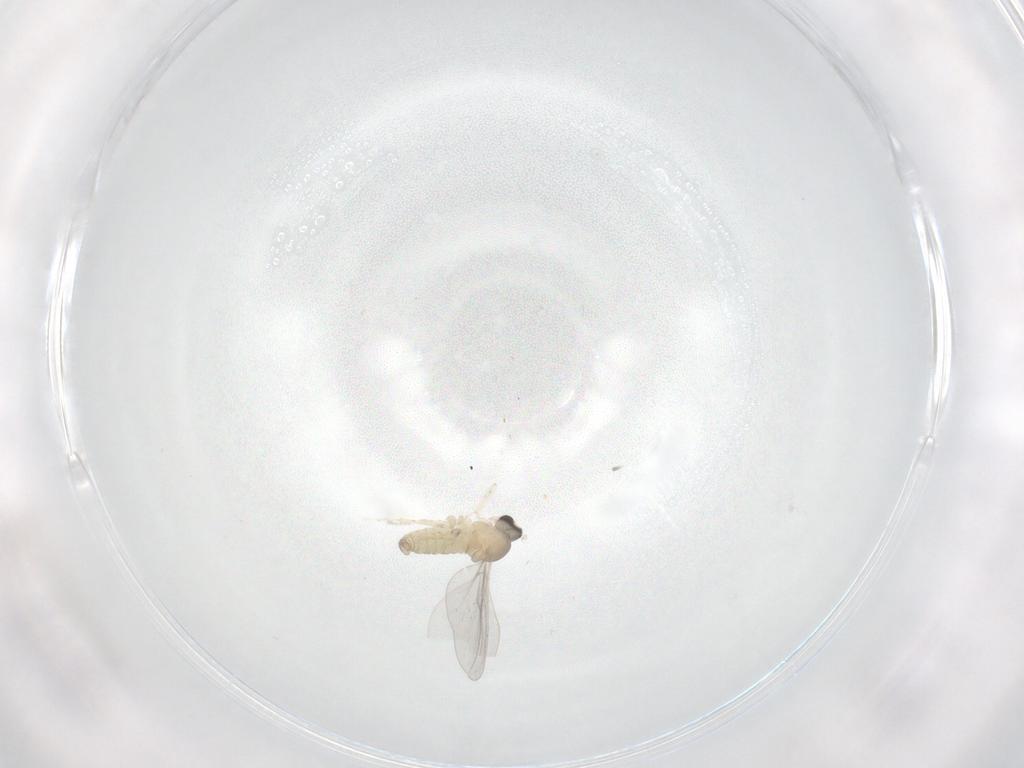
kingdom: Animalia
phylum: Arthropoda
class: Insecta
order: Diptera
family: Cecidomyiidae
